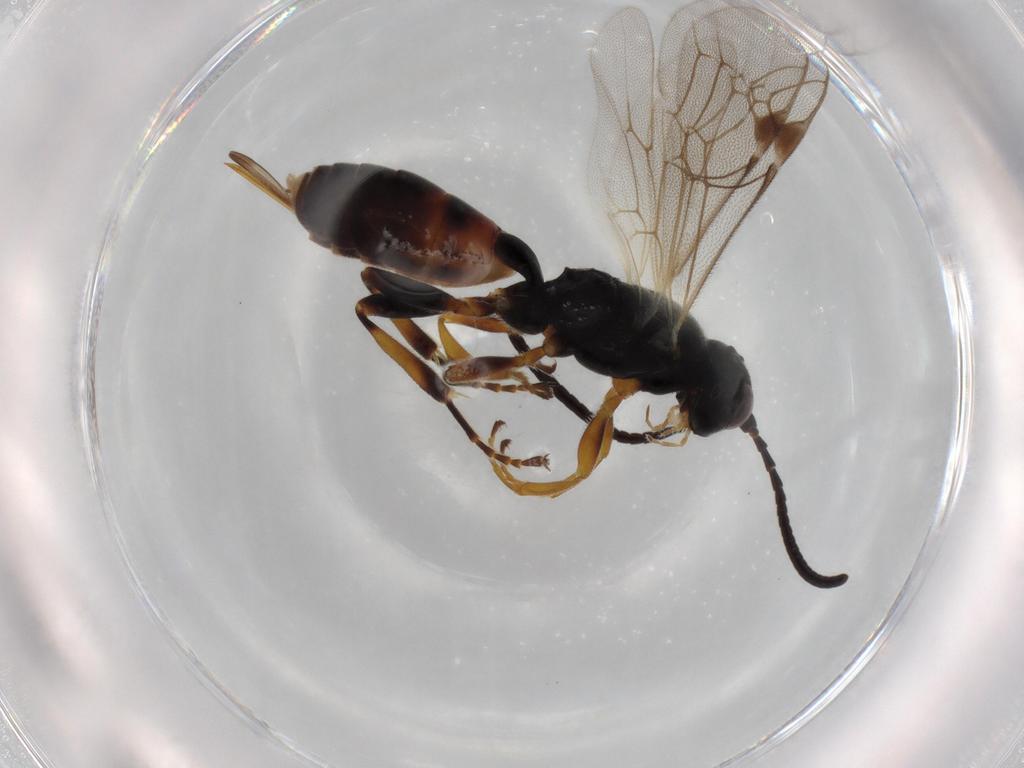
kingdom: Animalia
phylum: Arthropoda
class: Insecta
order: Hymenoptera
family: Ichneumonidae
